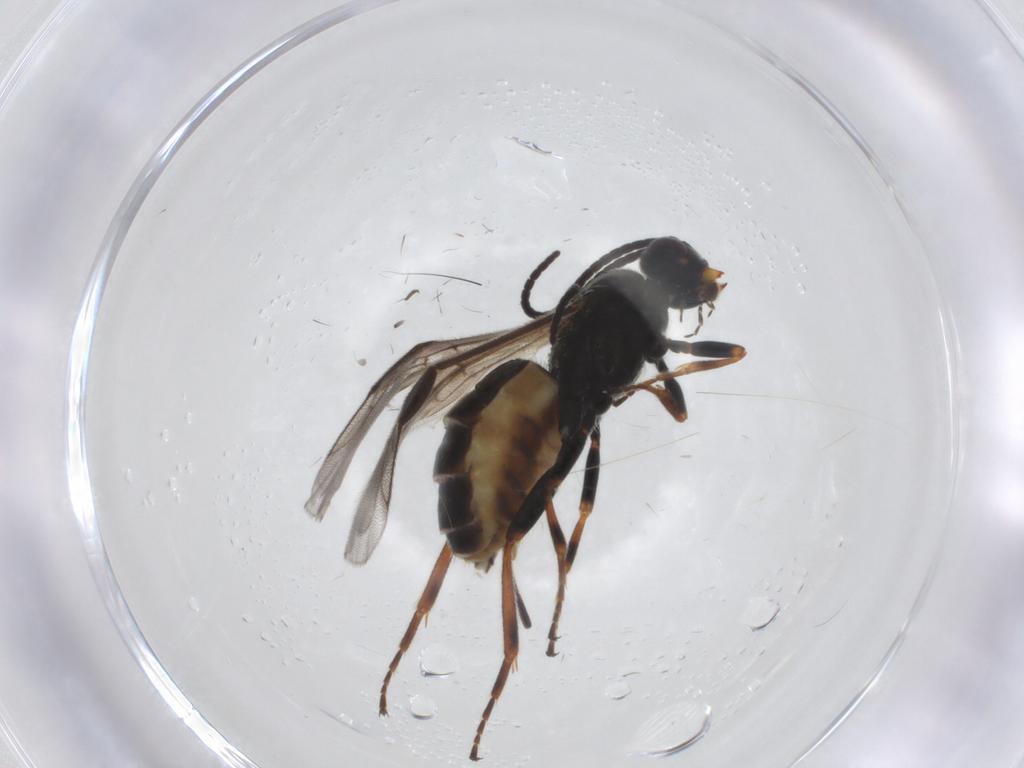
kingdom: Animalia
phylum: Arthropoda
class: Insecta
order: Hymenoptera
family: Braconidae
